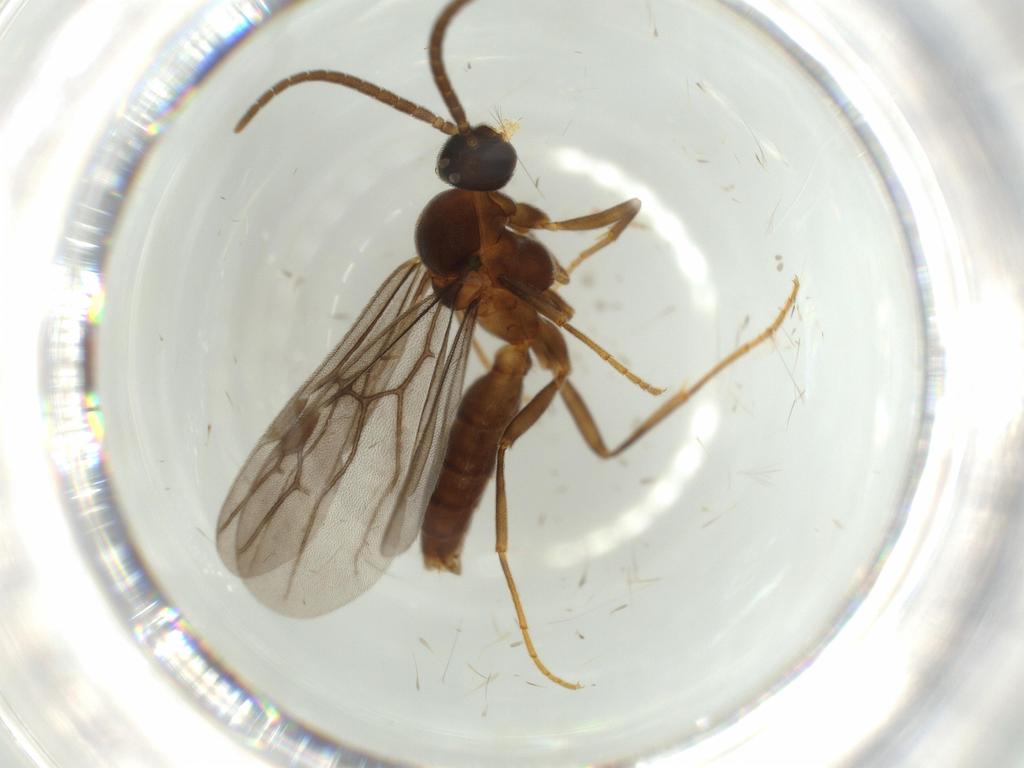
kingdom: Animalia
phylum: Arthropoda
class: Insecta
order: Hymenoptera
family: Formicidae
